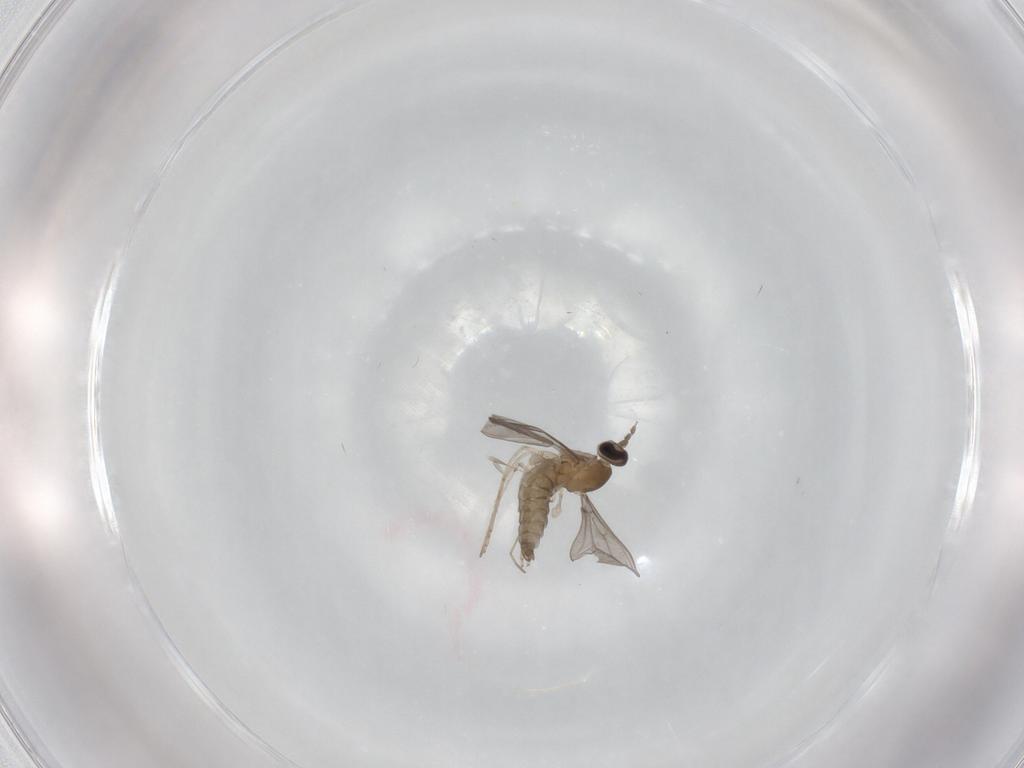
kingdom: Animalia
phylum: Arthropoda
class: Insecta
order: Diptera
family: Cecidomyiidae
